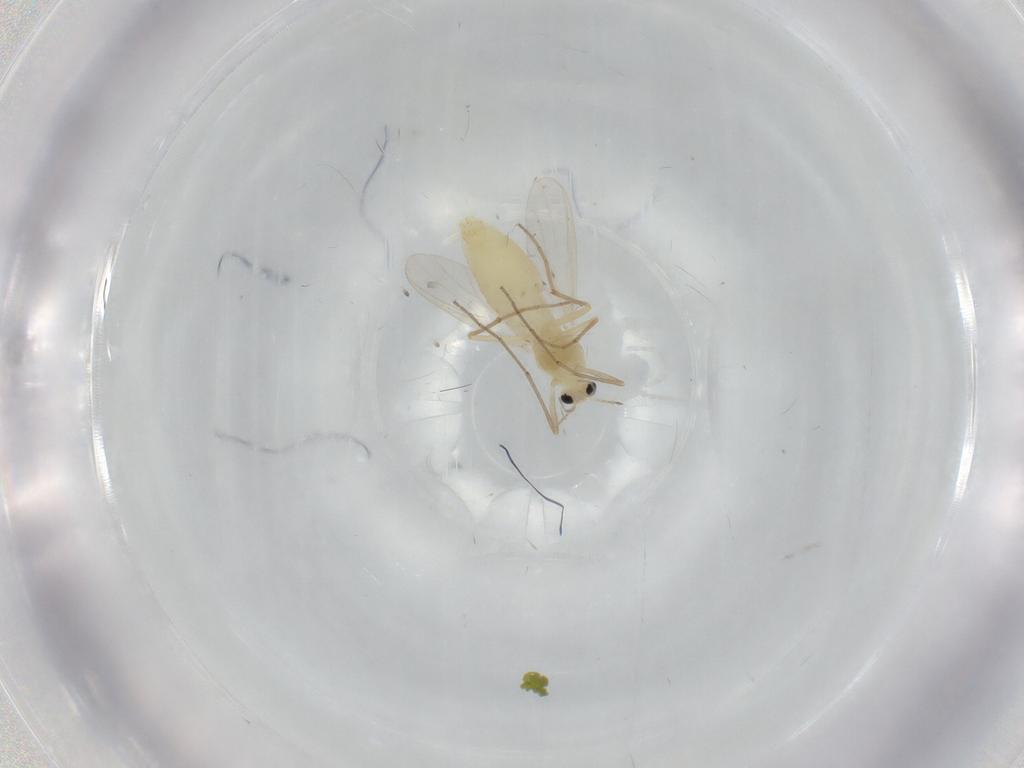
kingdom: Animalia
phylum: Arthropoda
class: Insecta
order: Diptera
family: Chironomidae
